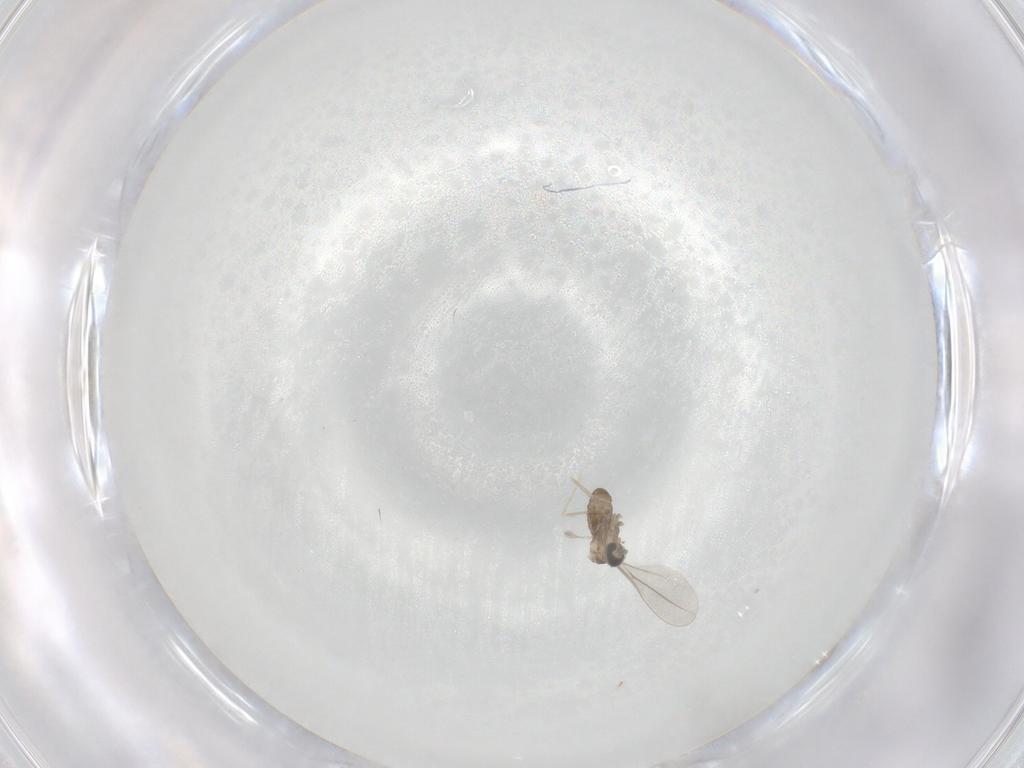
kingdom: Animalia
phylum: Arthropoda
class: Insecta
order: Diptera
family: Cecidomyiidae
